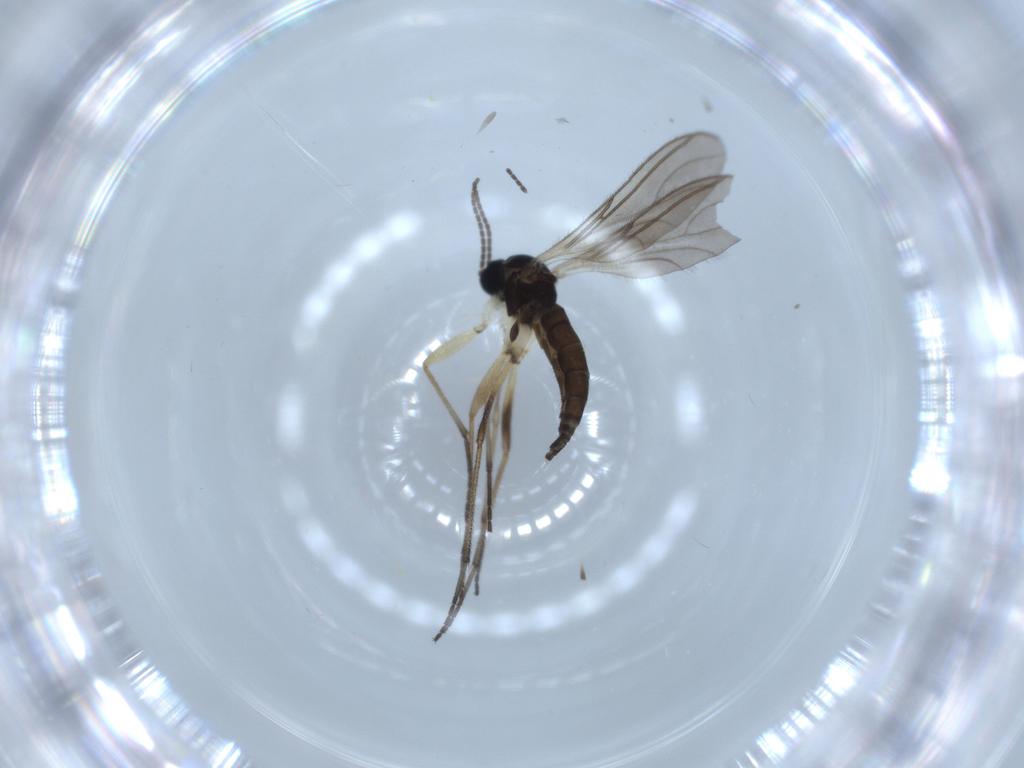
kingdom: Animalia
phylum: Arthropoda
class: Insecta
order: Diptera
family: Sciaridae
